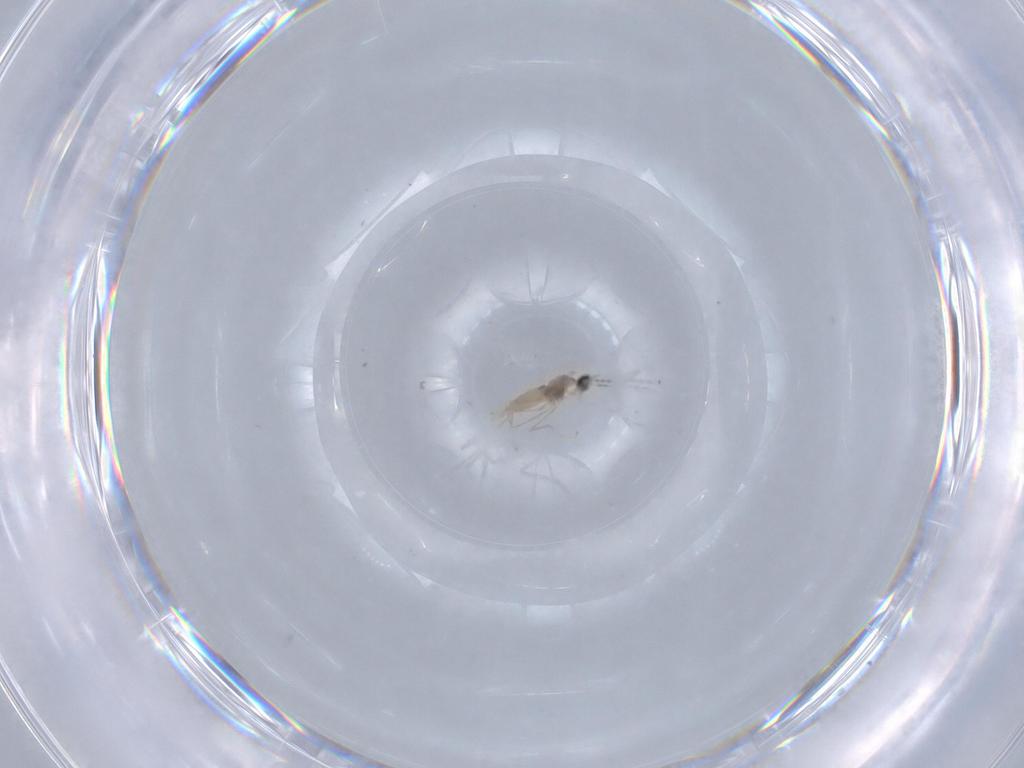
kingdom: Animalia
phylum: Arthropoda
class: Insecta
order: Diptera
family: Cecidomyiidae
